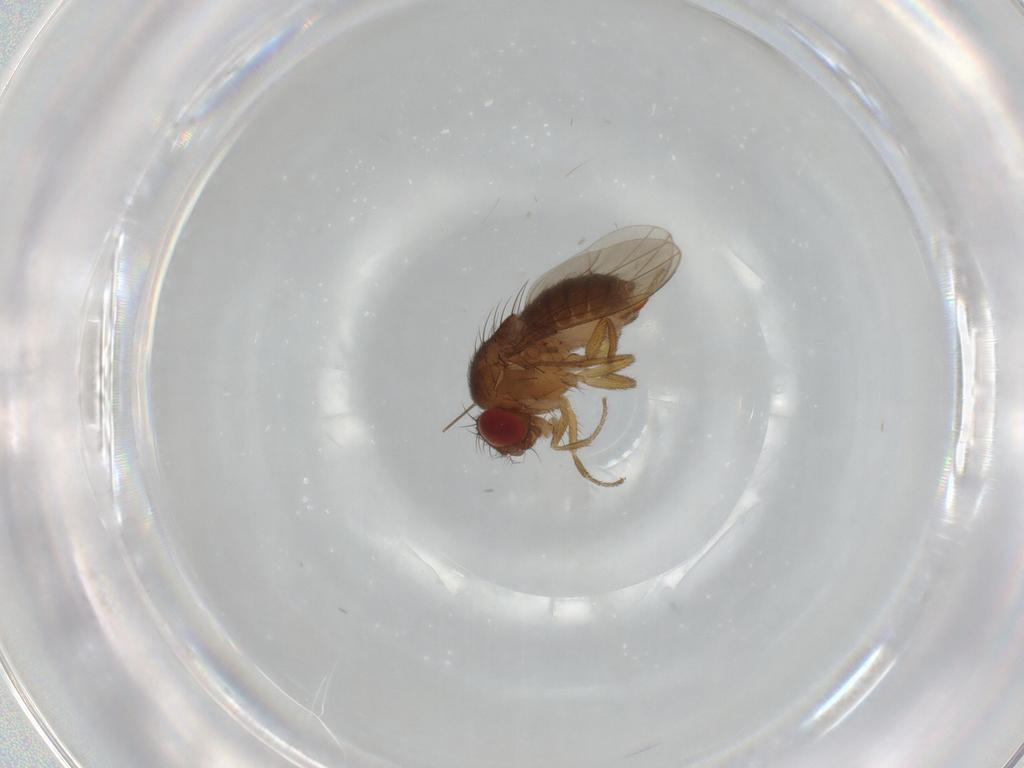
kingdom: Animalia
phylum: Arthropoda
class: Insecta
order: Diptera
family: Drosophilidae
